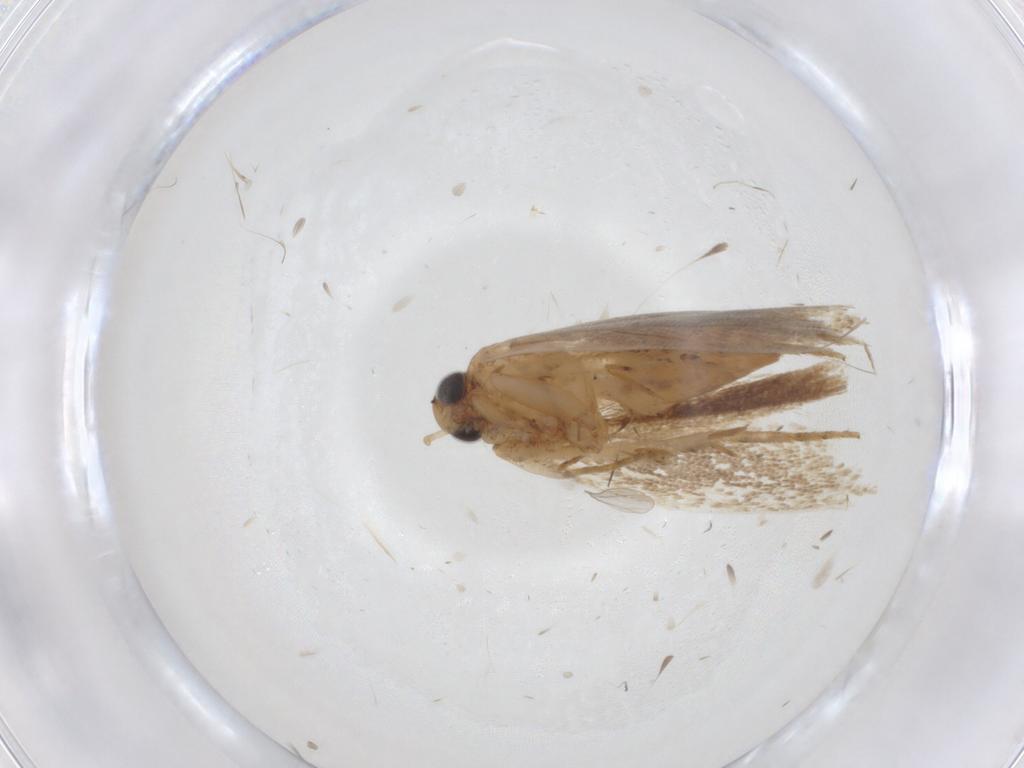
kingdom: Animalia
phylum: Arthropoda
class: Insecta
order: Lepidoptera
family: Gelechiidae
